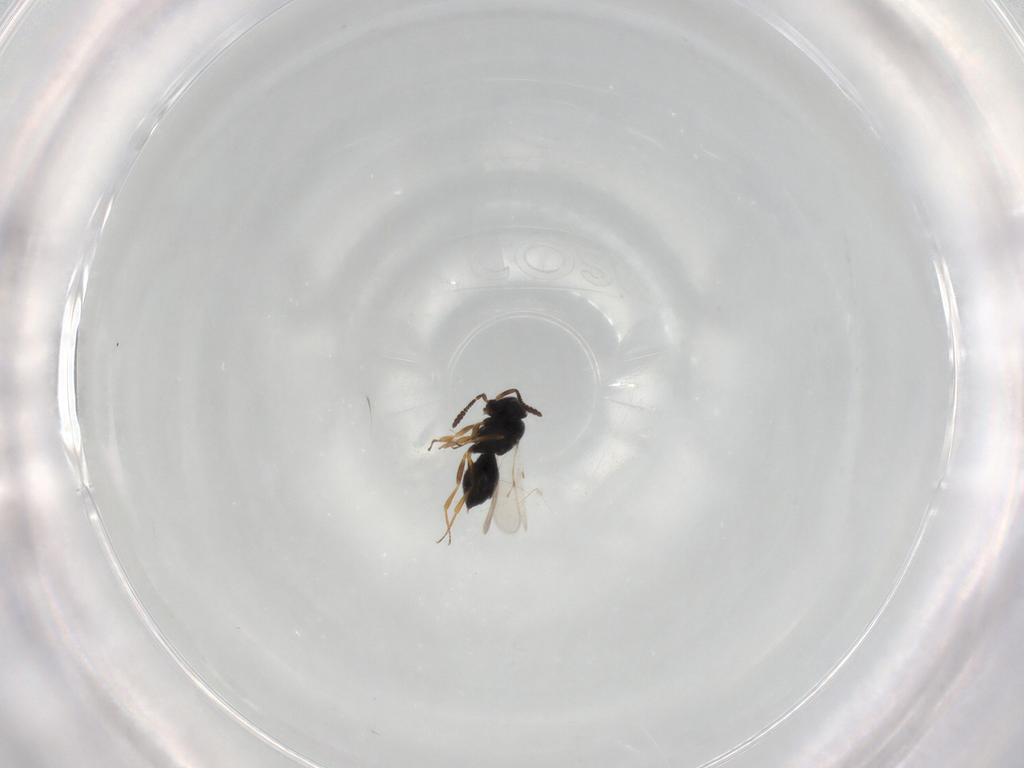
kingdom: Animalia
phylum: Arthropoda
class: Insecta
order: Hymenoptera
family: Scelionidae
